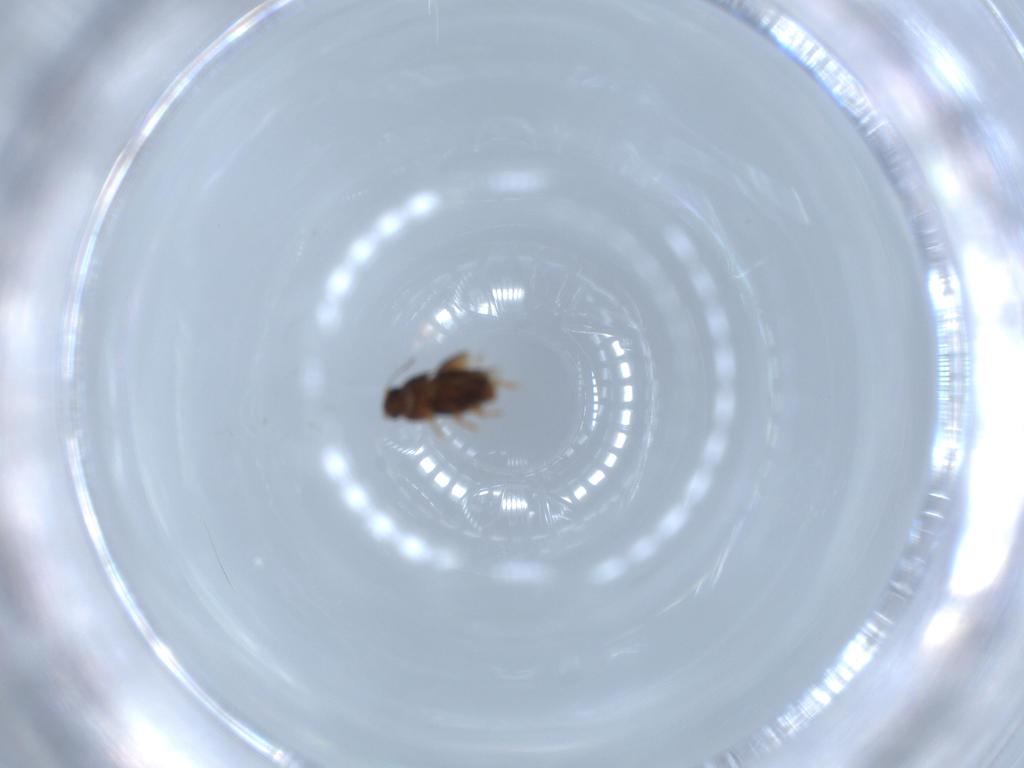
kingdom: Animalia
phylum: Arthropoda
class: Insecta
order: Coleoptera
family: Ptiliidae
